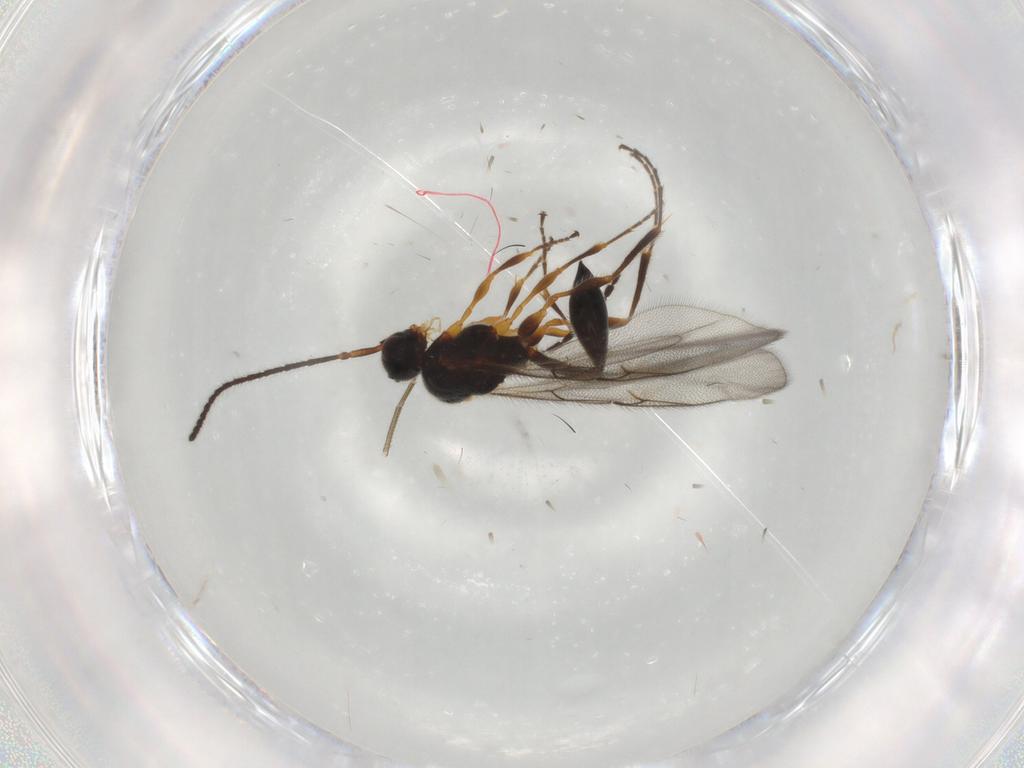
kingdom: Animalia
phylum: Arthropoda
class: Insecta
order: Hymenoptera
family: Diapriidae
